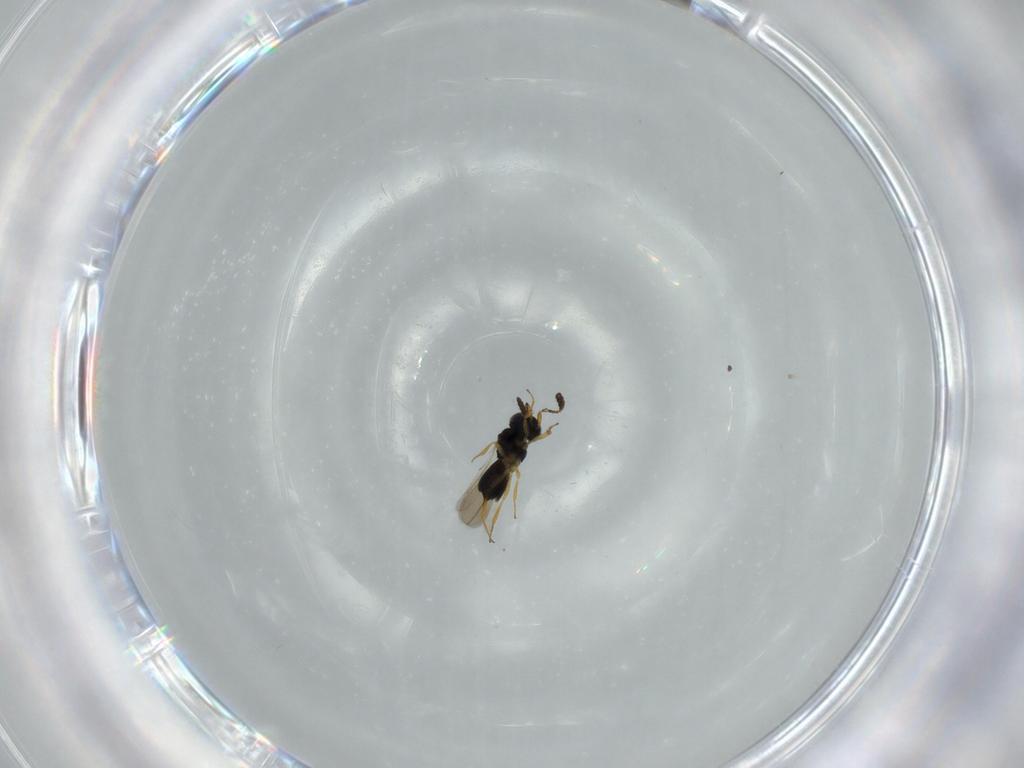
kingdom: Animalia
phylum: Arthropoda
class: Insecta
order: Hymenoptera
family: Scelionidae
